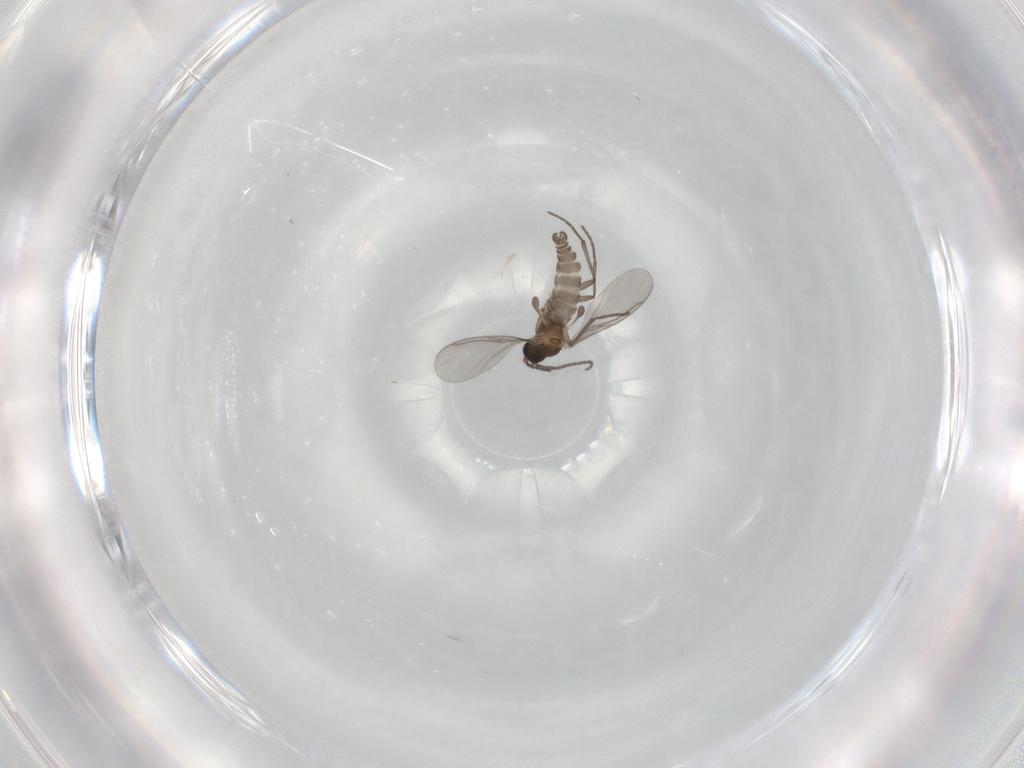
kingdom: Animalia
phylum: Arthropoda
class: Insecta
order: Diptera
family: Sciaridae
